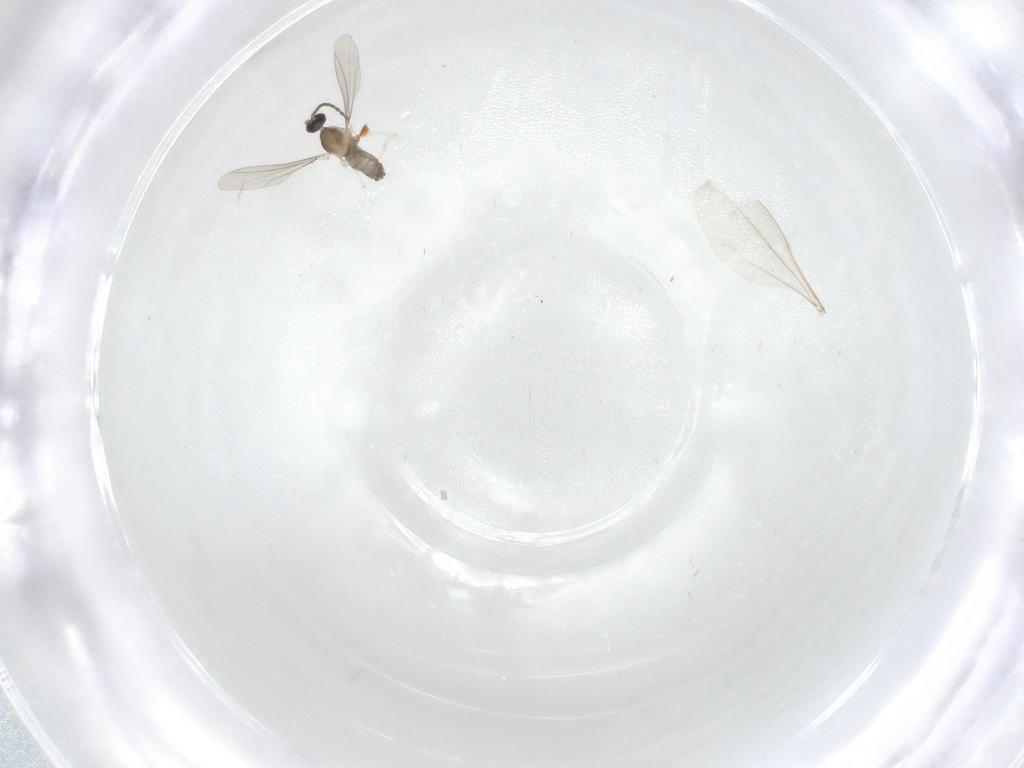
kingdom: Animalia
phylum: Arthropoda
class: Insecta
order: Diptera
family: Cecidomyiidae
